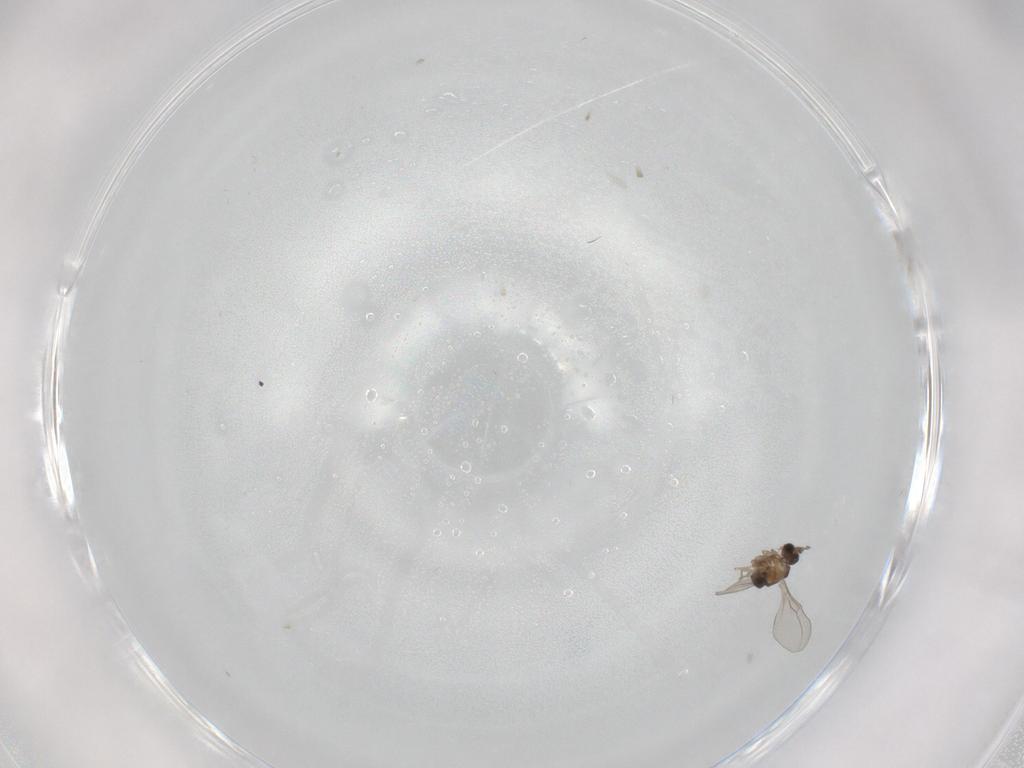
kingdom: Animalia
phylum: Arthropoda
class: Insecta
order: Diptera
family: Cecidomyiidae
